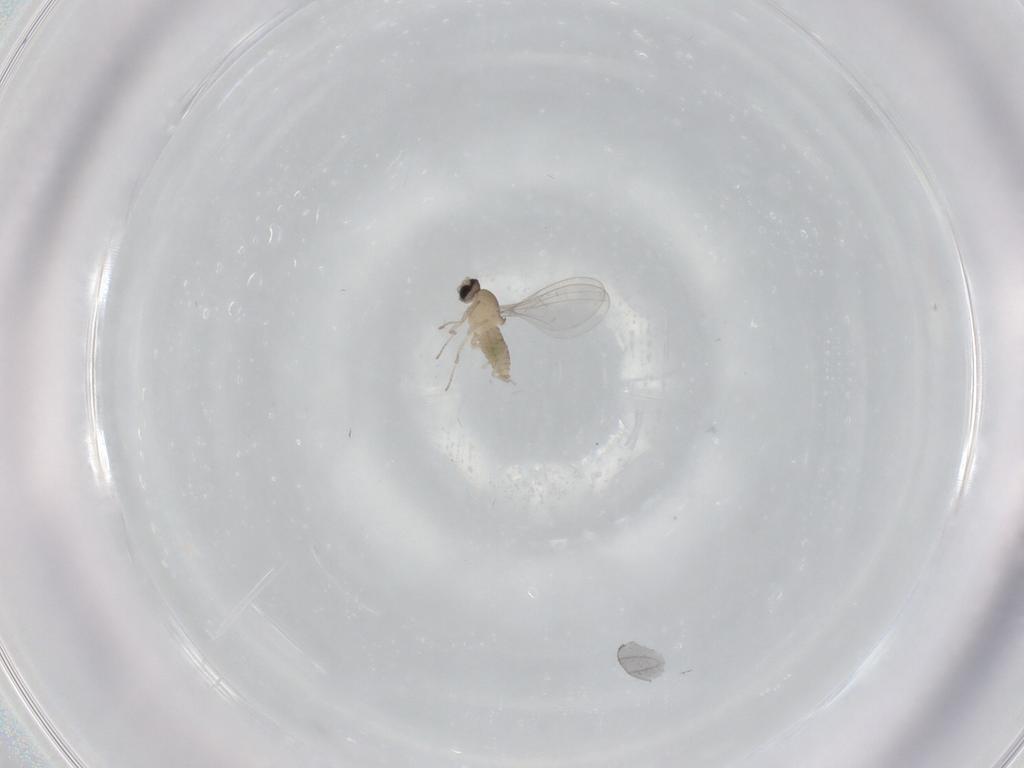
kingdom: Animalia
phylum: Arthropoda
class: Insecta
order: Diptera
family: Cecidomyiidae
